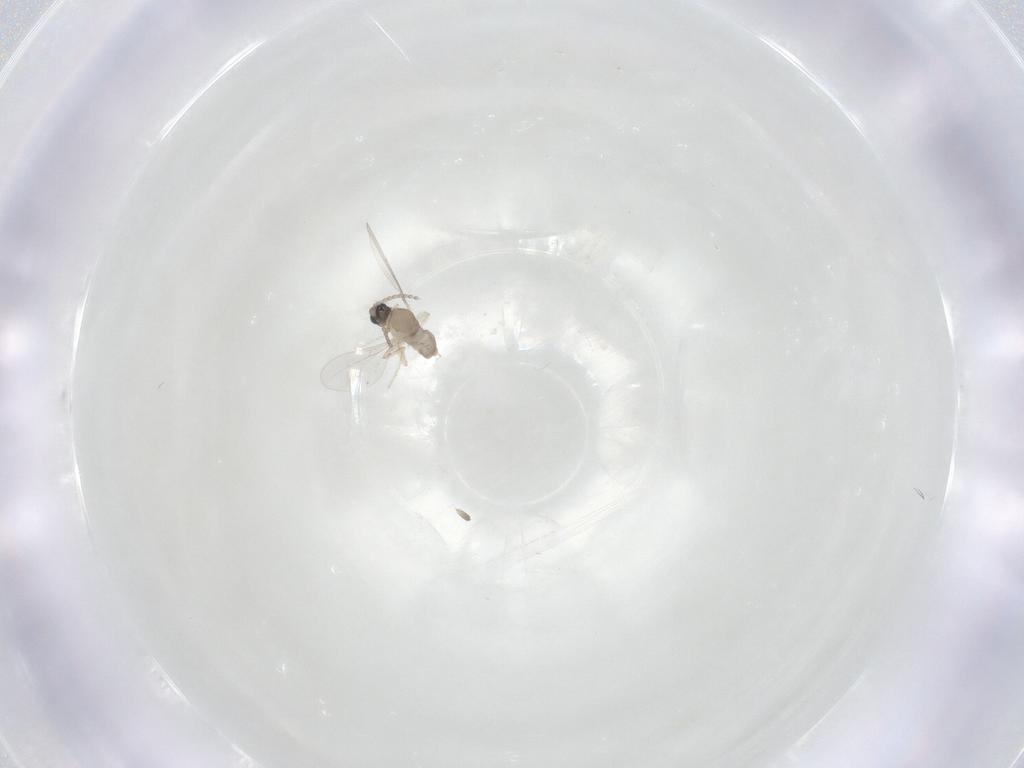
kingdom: Animalia
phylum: Arthropoda
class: Insecta
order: Diptera
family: Cecidomyiidae
